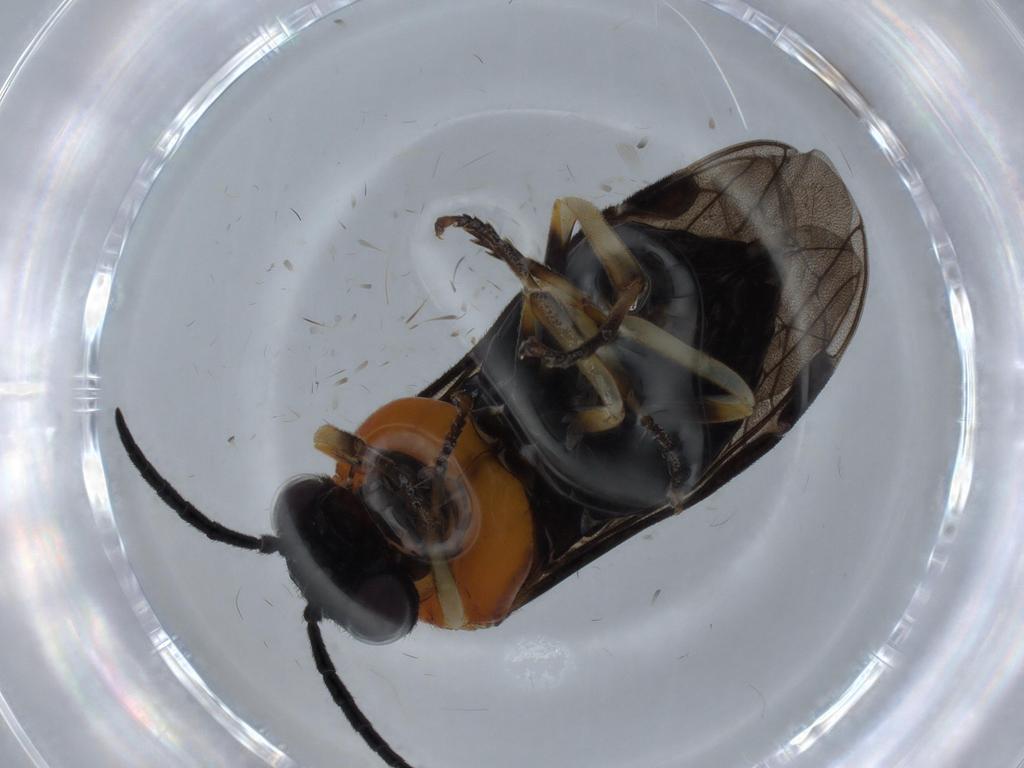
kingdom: Animalia
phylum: Arthropoda
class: Insecta
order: Hymenoptera
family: Tenthredinidae
